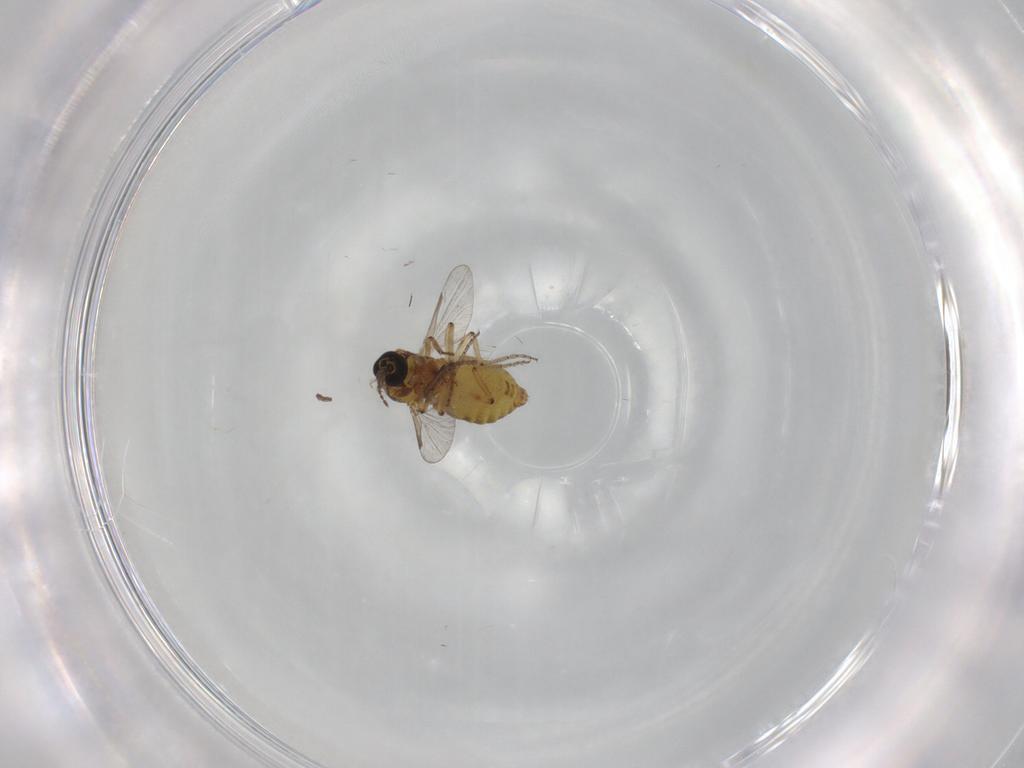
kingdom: Animalia
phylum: Arthropoda
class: Insecta
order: Diptera
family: Ceratopogonidae
